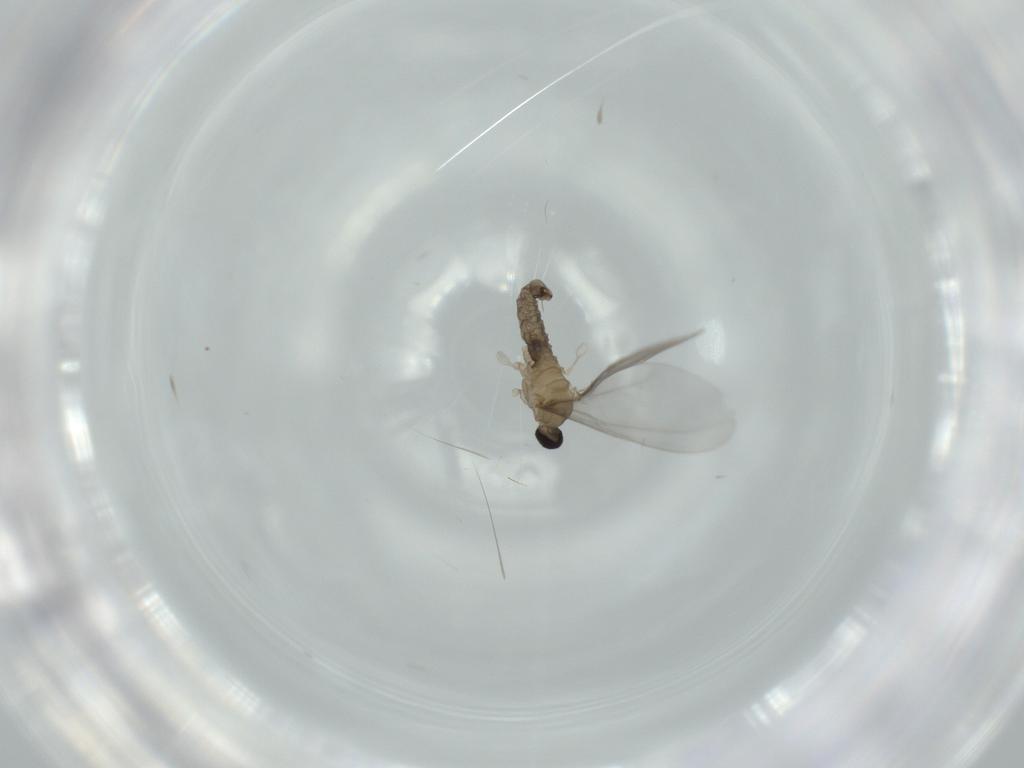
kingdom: Animalia
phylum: Arthropoda
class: Insecta
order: Diptera
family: Cecidomyiidae
